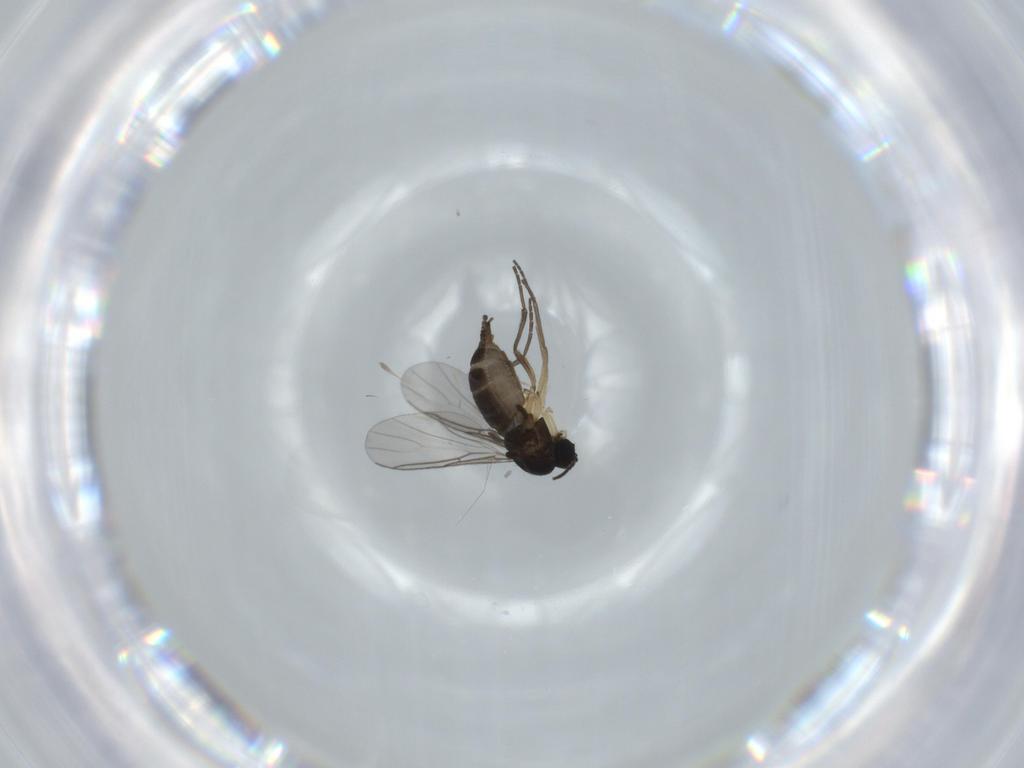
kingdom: Animalia
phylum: Arthropoda
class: Insecta
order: Diptera
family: Sciaridae
